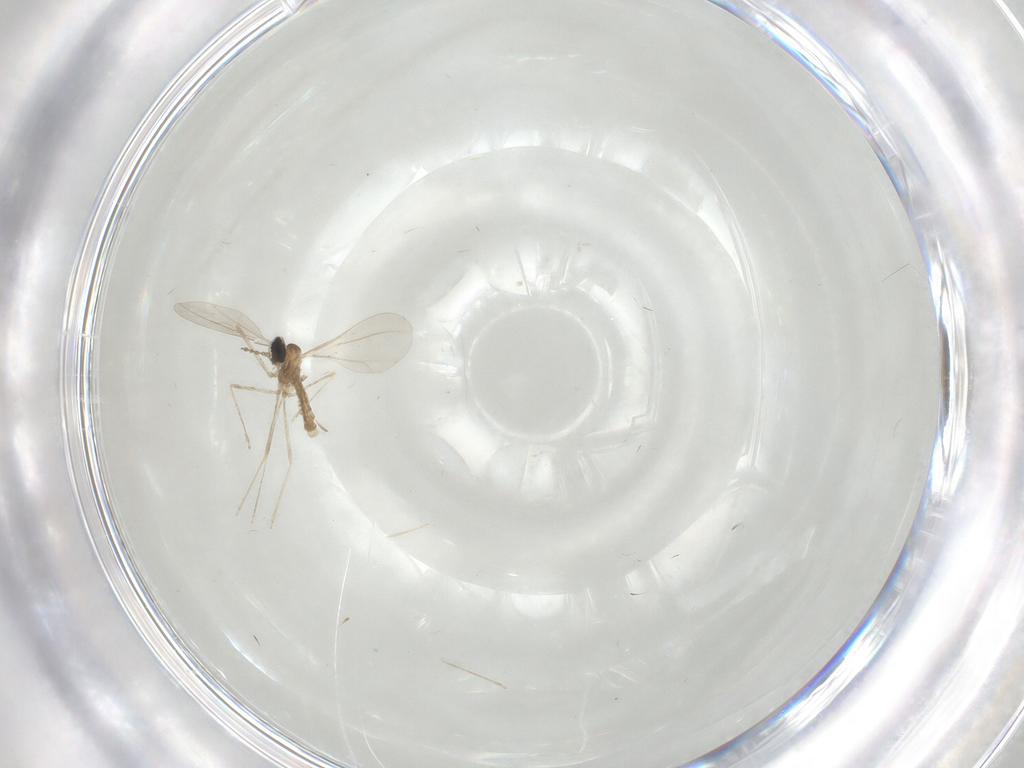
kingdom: Animalia
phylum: Arthropoda
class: Insecta
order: Diptera
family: Cecidomyiidae
